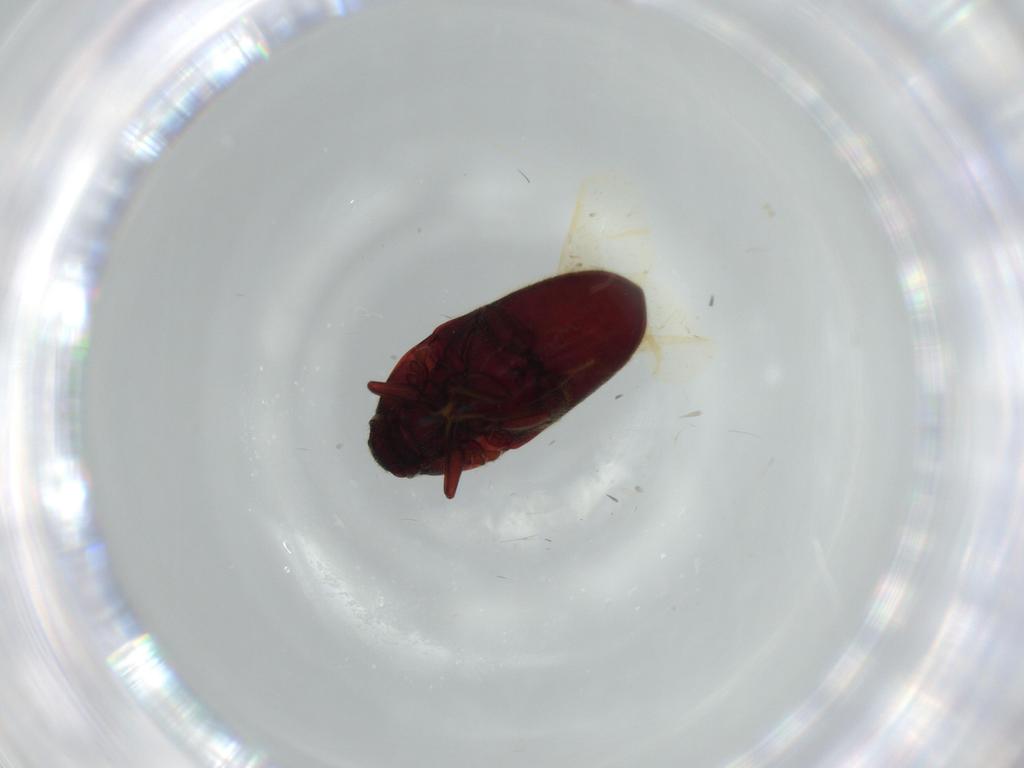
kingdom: Animalia
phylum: Arthropoda
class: Insecta
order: Coleoptera
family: Throscidae
